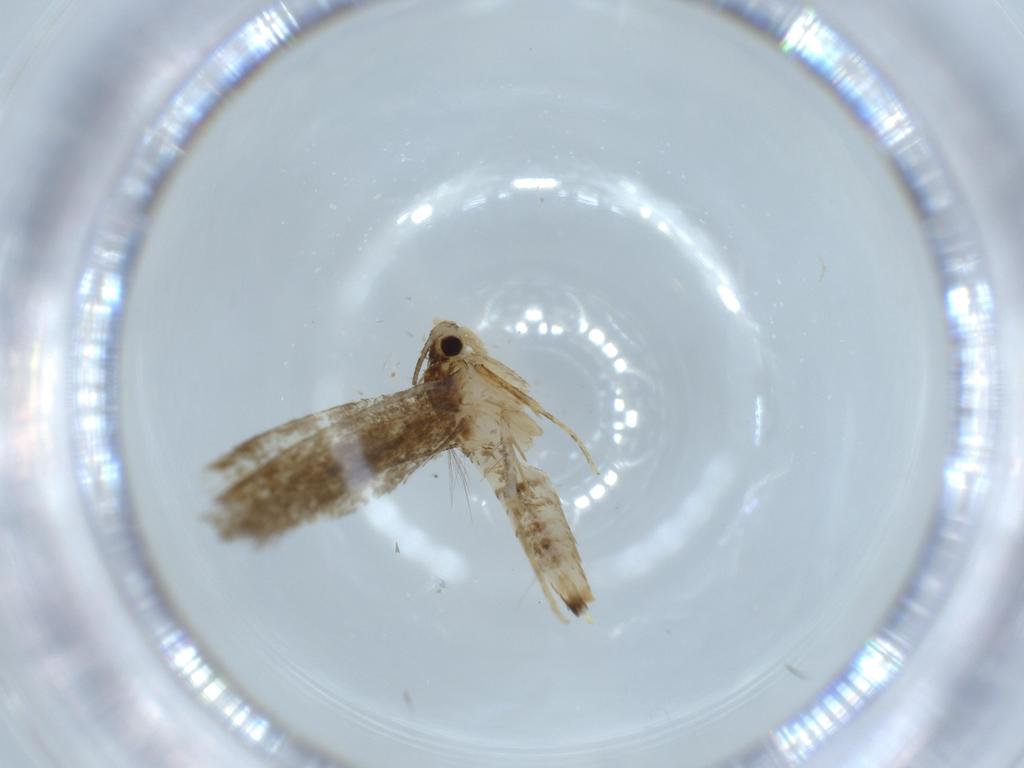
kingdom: Animalia
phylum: Arthropoda
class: Insecta
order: Lepidoptera
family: Tineidae
